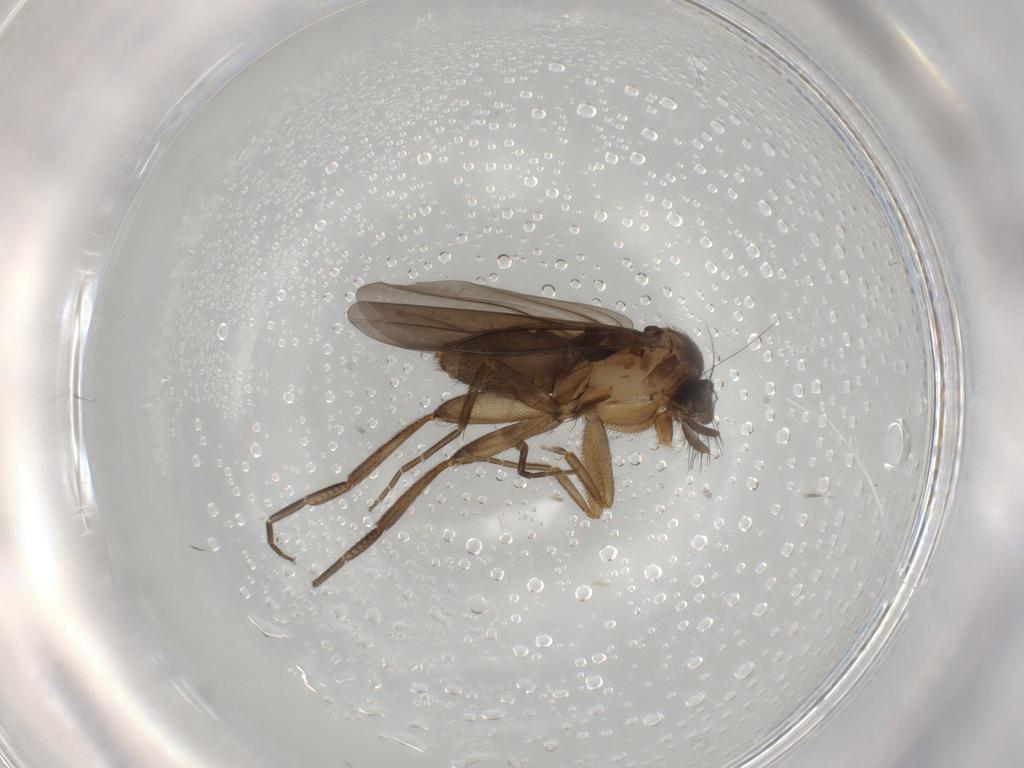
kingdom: Animalia
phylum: Arthropoda
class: Insecta
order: Diptera
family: Phoridae
